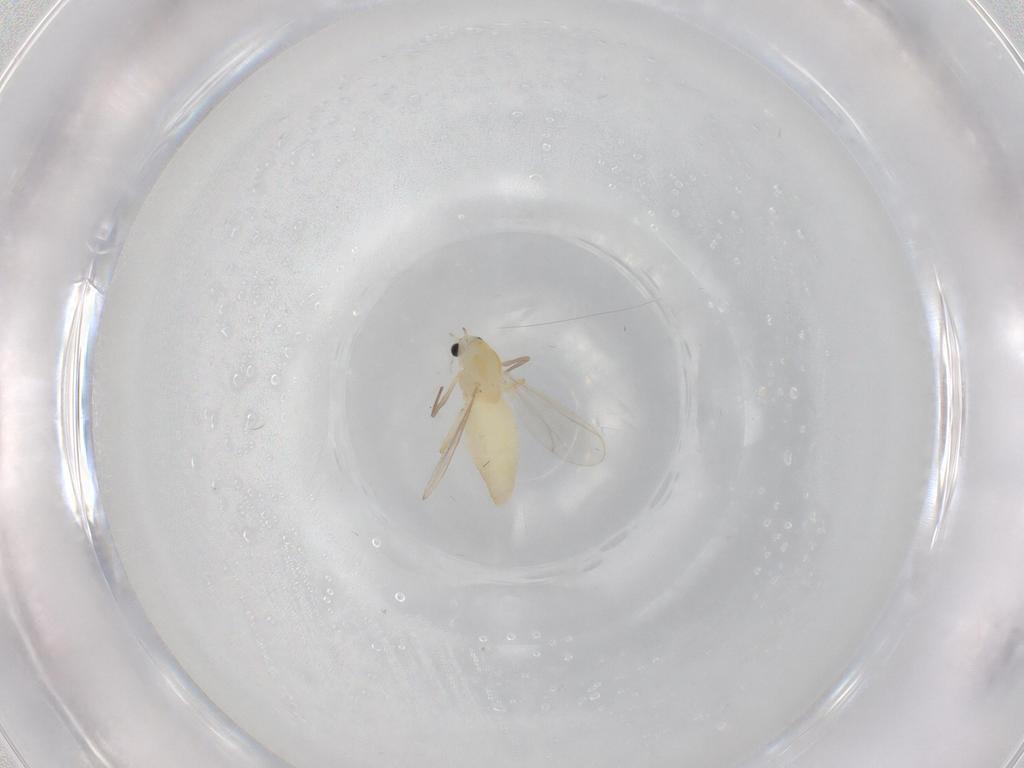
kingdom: Animalia
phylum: Arthropoda
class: Insecta
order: Diptera
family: Chironomidae
